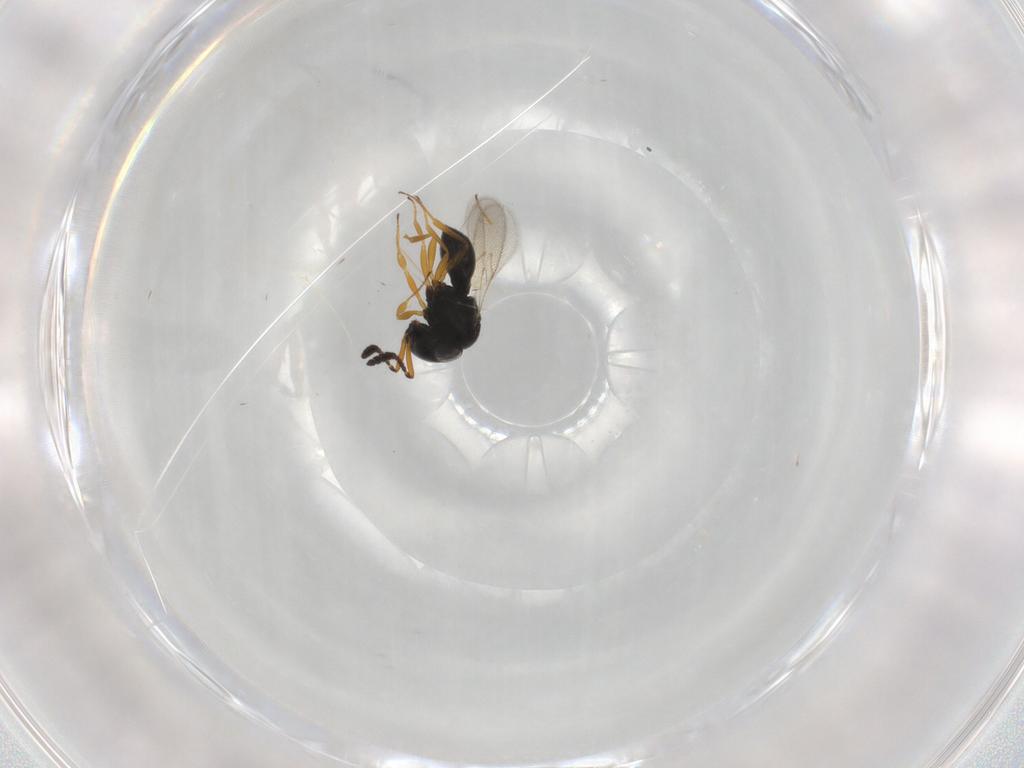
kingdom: Animalia
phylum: Arthropoda
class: Insecta
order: Hymenoptera
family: Scelionidae
